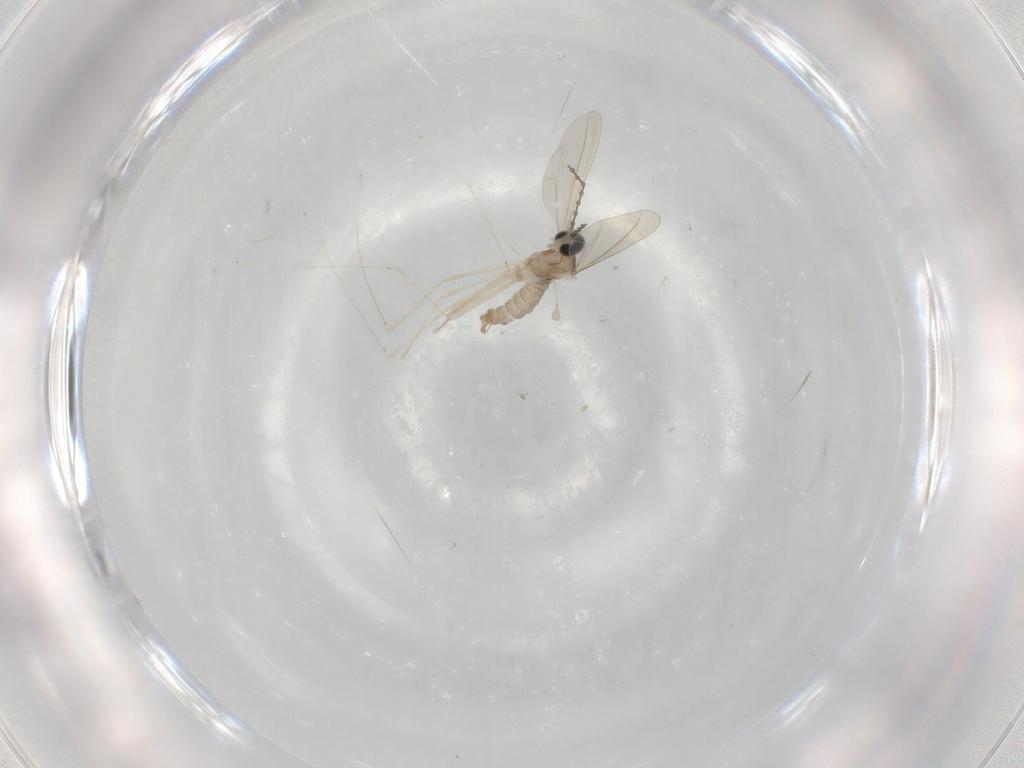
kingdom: Animalia
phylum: Arthropoda
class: Insecta
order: Diptera
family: Cecidomyiidae
